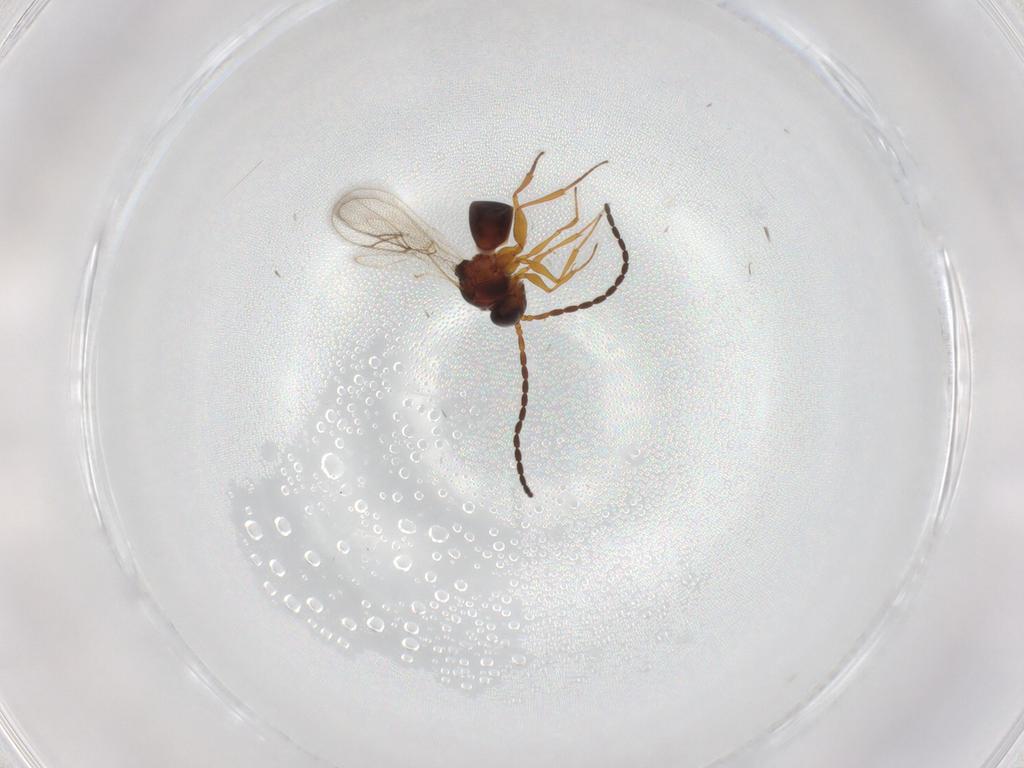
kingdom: Animalia
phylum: Arthropoda
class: Insecta
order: Hymenoptera
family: Figitidae
